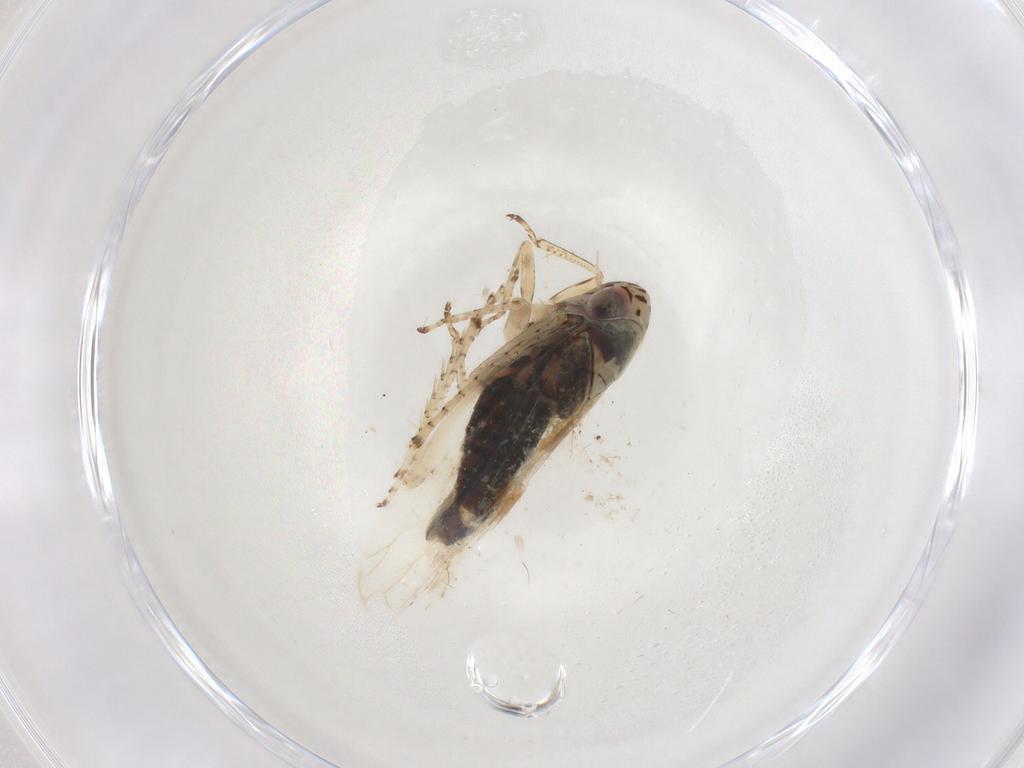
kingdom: Animalia
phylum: Arthropoda
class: Insecta
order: Hemiptera
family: Cicadellidae
